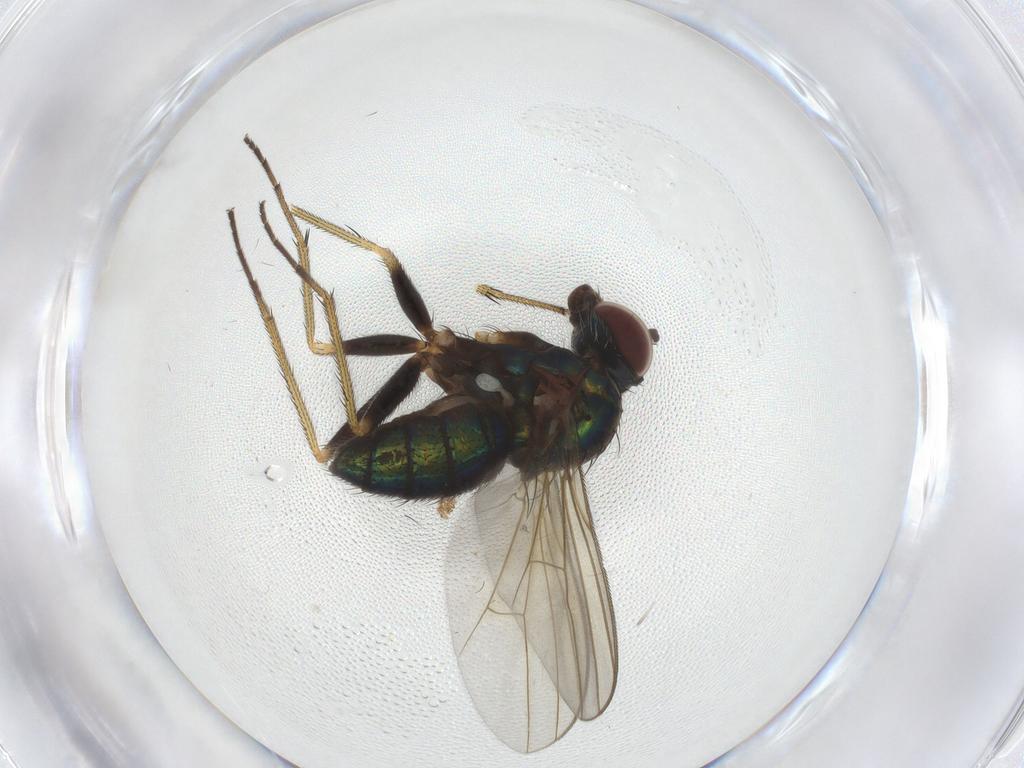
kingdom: Animalia
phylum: Arthropoda
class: Insecta
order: Diptera
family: Dolichopodidae
